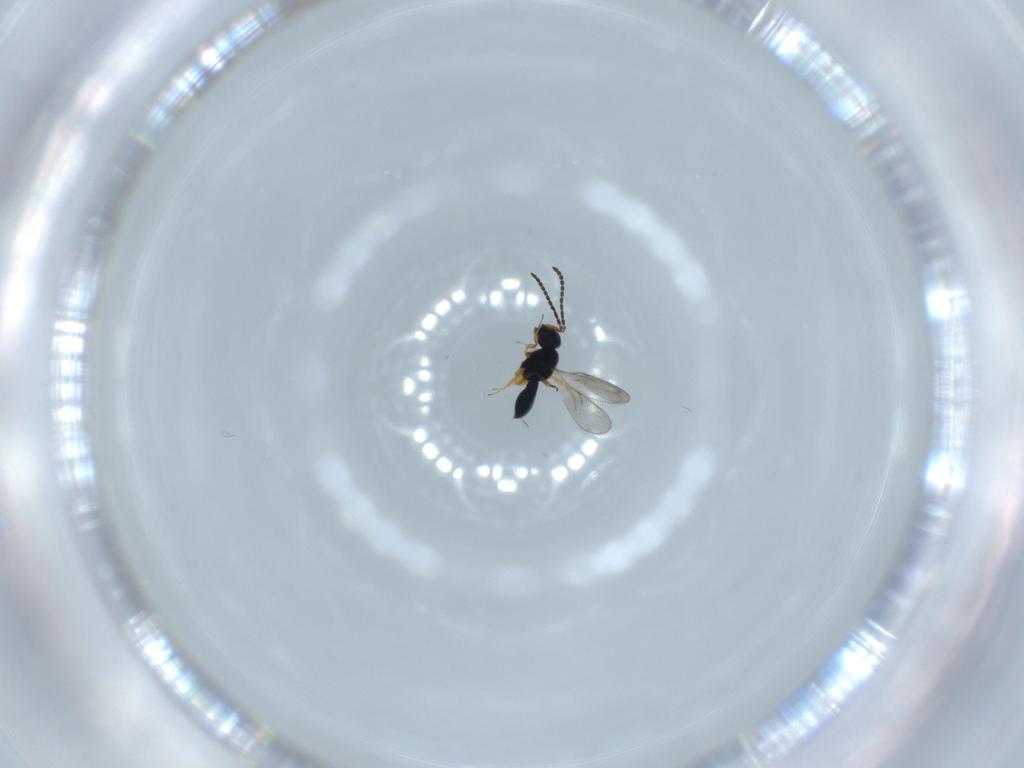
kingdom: Animalia
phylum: Arthropoda
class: Insecta
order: Hymenoptera
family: Scelionidae
